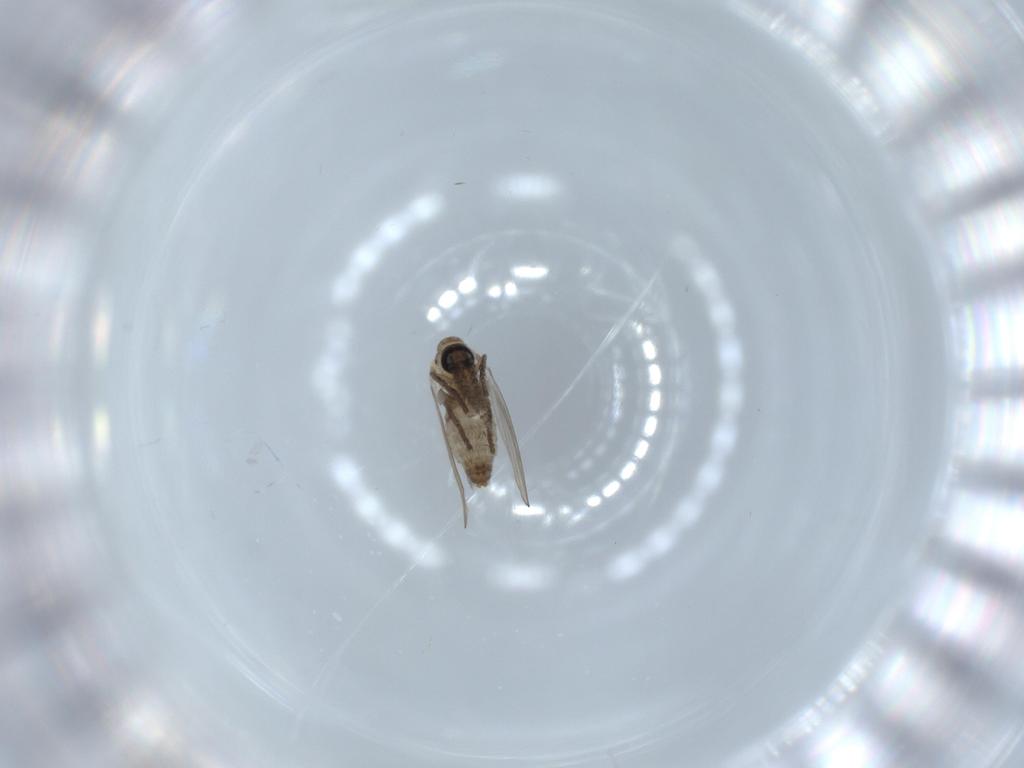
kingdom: Animalia
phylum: Arthropoda
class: Insecta
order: Diptera
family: Psychodidae
